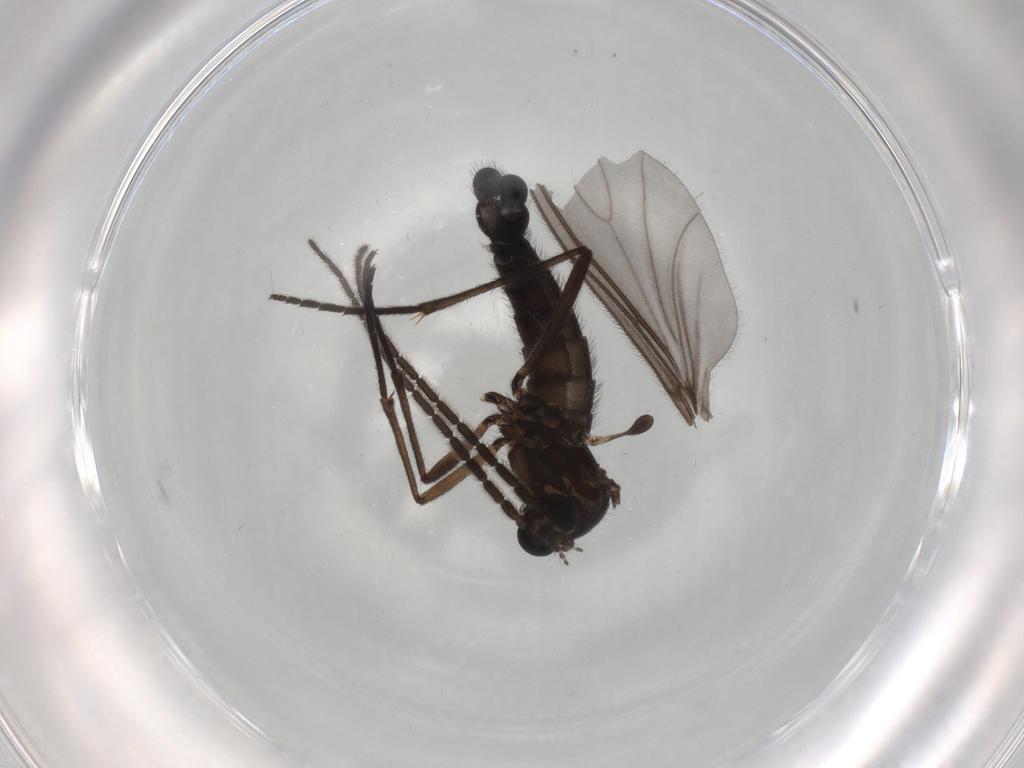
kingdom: Animalia
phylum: Arthropoda
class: Insecta
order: Diptera
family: Sciaridae
